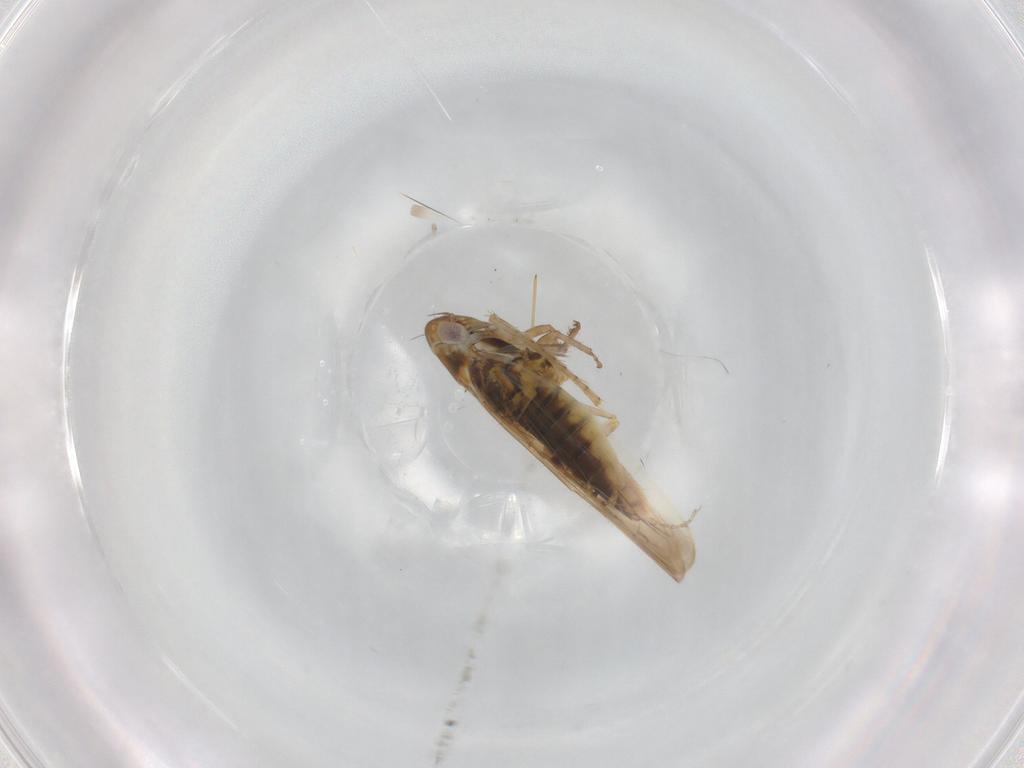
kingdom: Animalia
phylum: Arthropoda
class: Insecta
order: Hemiptera
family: Cicadellidae
